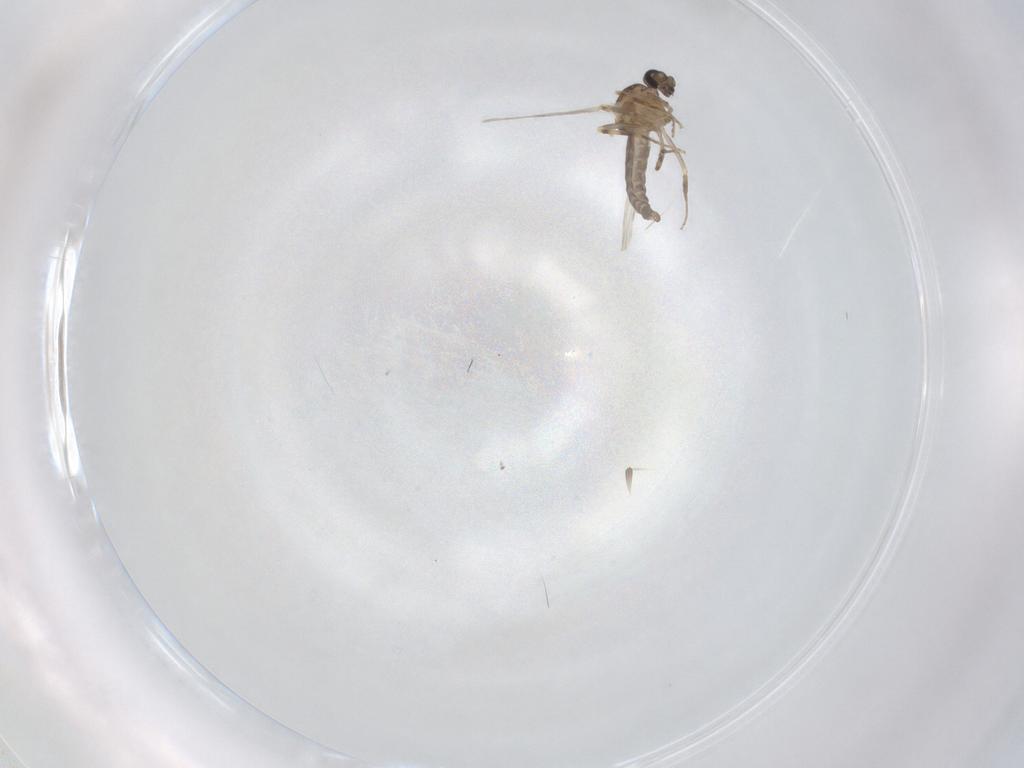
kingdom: Animalia
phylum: Arthropoda
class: Insecta
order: Diptera
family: Ceratopogonidae
